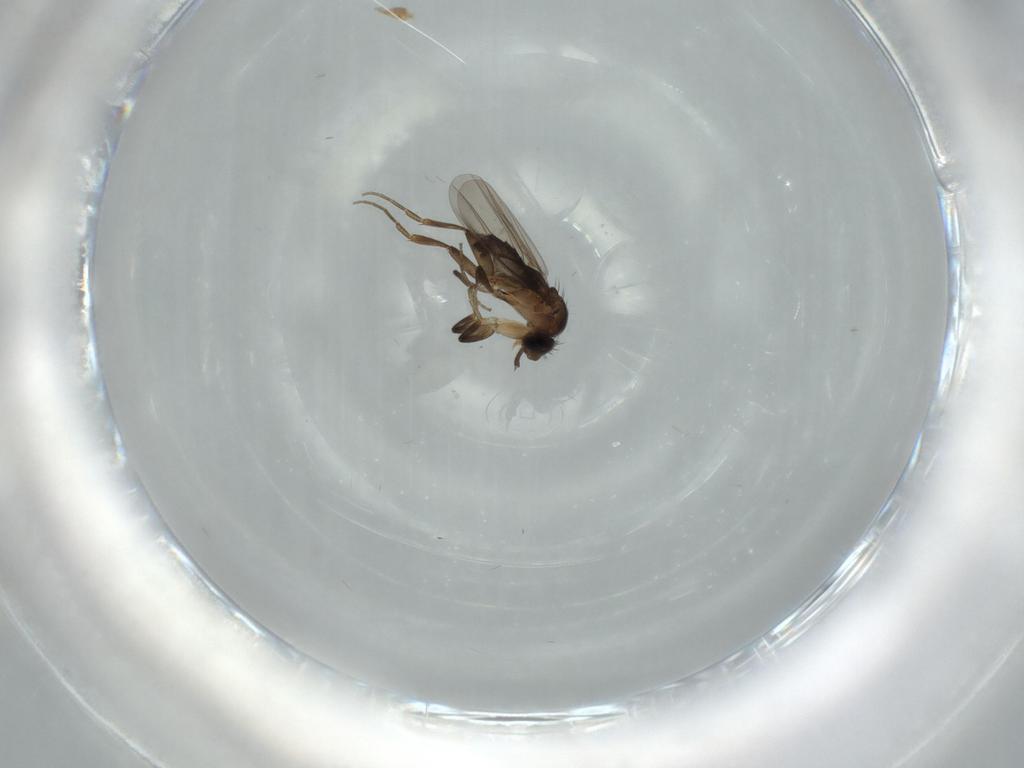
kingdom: Animalia
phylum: Arthropoda
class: Insecta
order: Diptera
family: Phoridae
